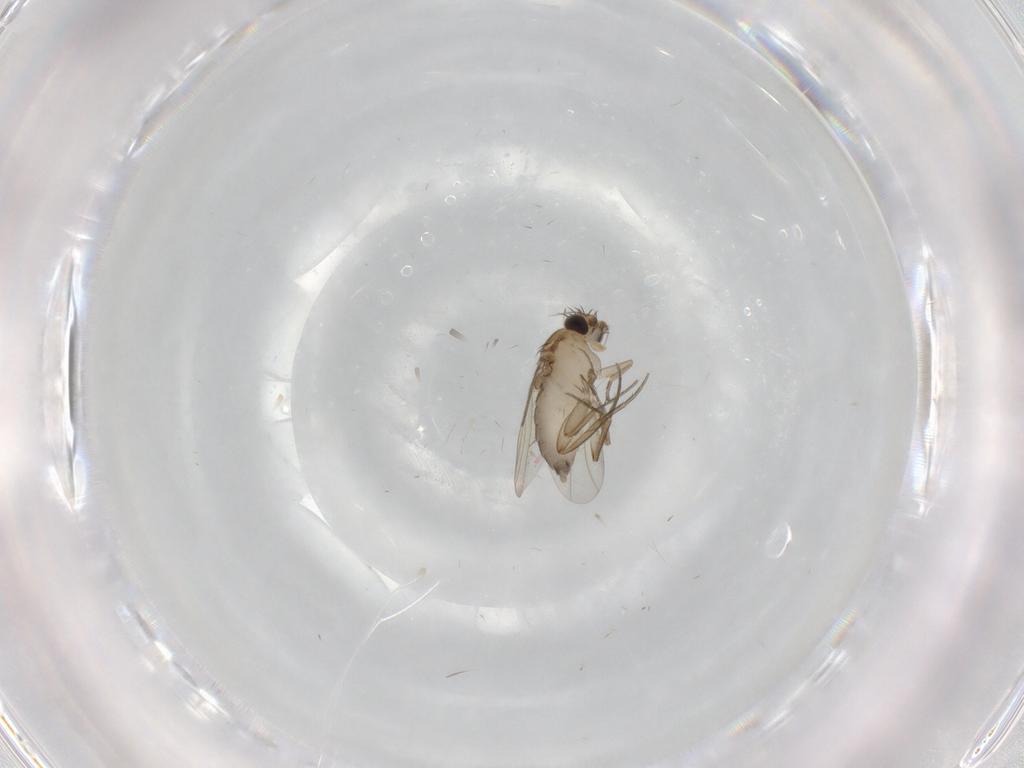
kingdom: Animalia
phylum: Arthropoda
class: Insecta
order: Diptera
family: Phoridae
